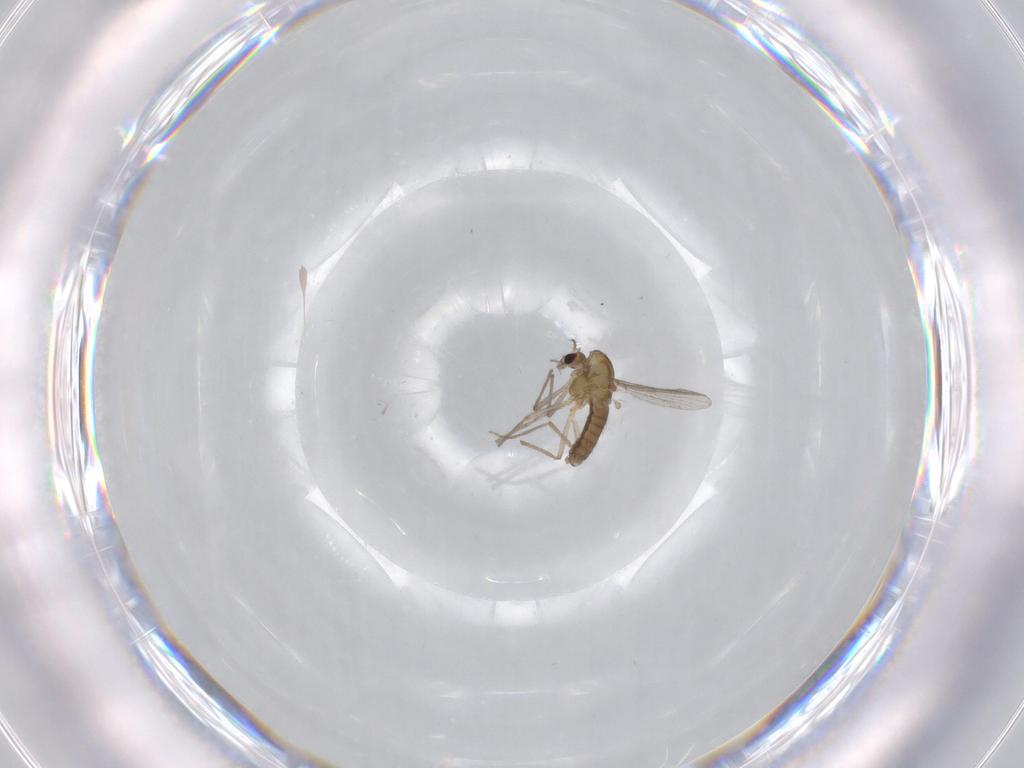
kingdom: Animalia
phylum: Arthropoda
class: Insecta
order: Diptera
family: Chironomidae
